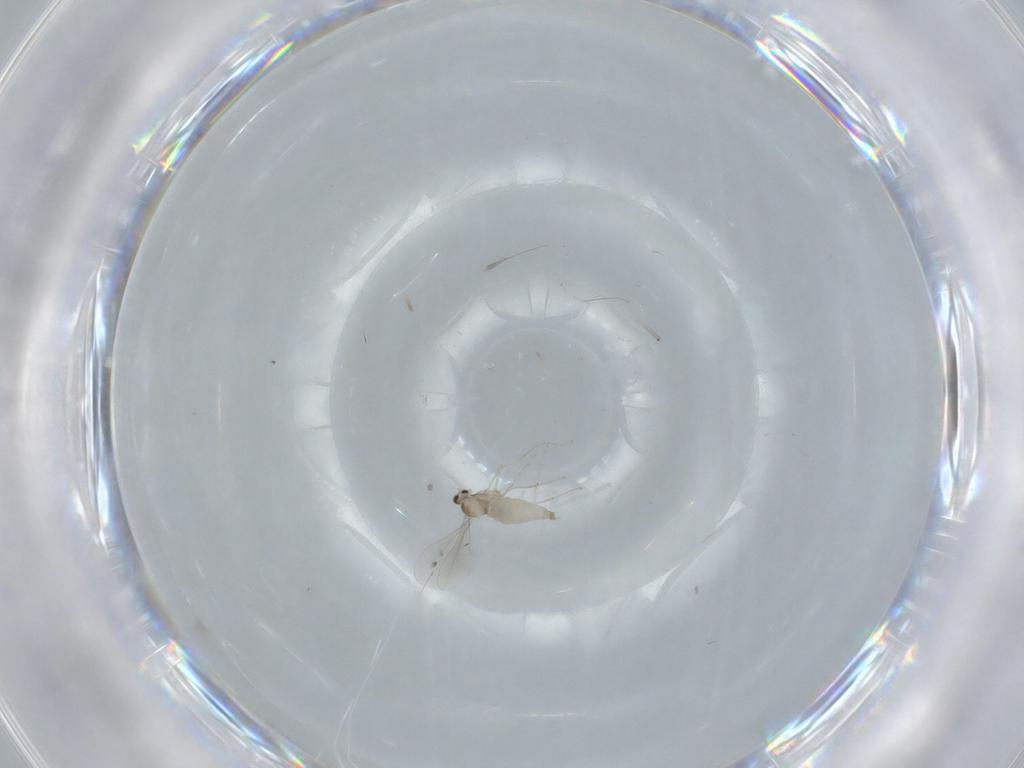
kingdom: Animalia
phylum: Arthropoda
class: Insecta
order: Diptera
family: Cecidomyiidae
